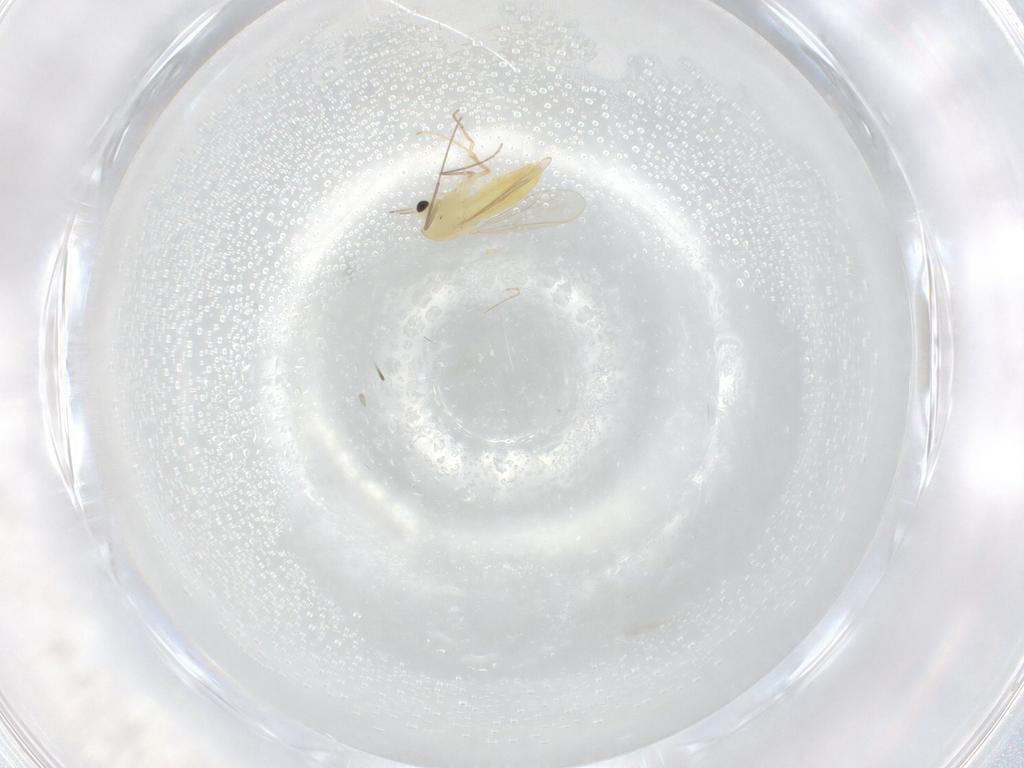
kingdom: Animalia
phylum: Arthropoda
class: Insecta
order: Diptera
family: Chironomidae
